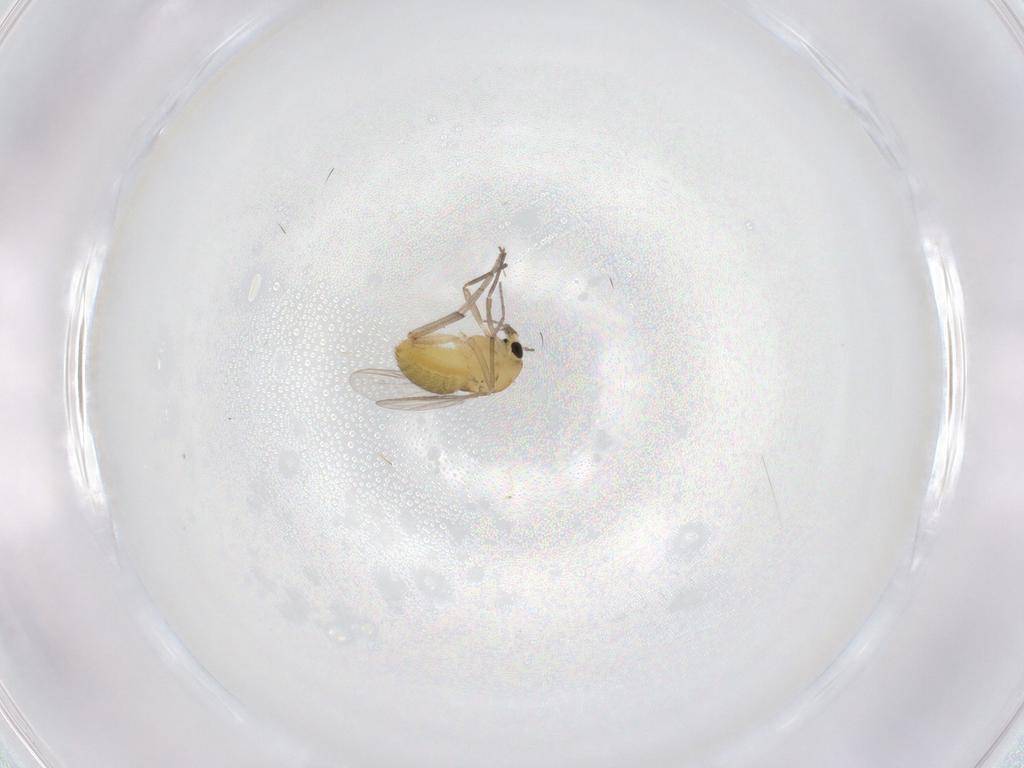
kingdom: Animalia
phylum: Arthropoda
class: Insecta
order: Diptera
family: Chironomidae
